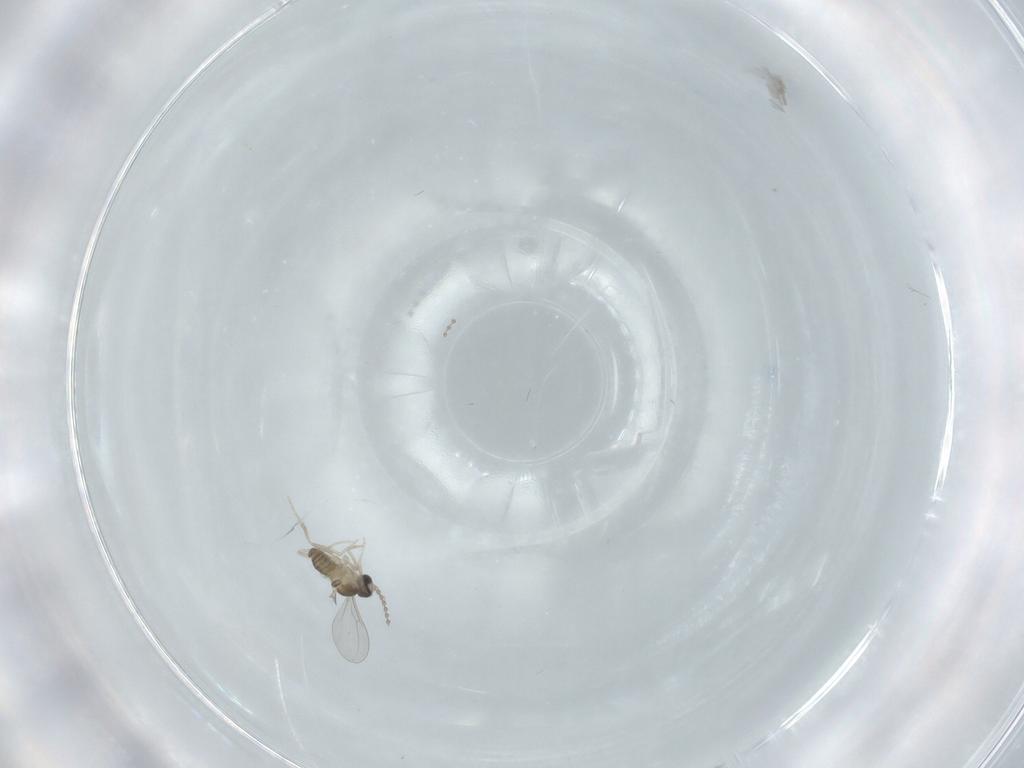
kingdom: Animalia
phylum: Arthropoda
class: Insecta
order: Diptera
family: Cecidomyiidae
